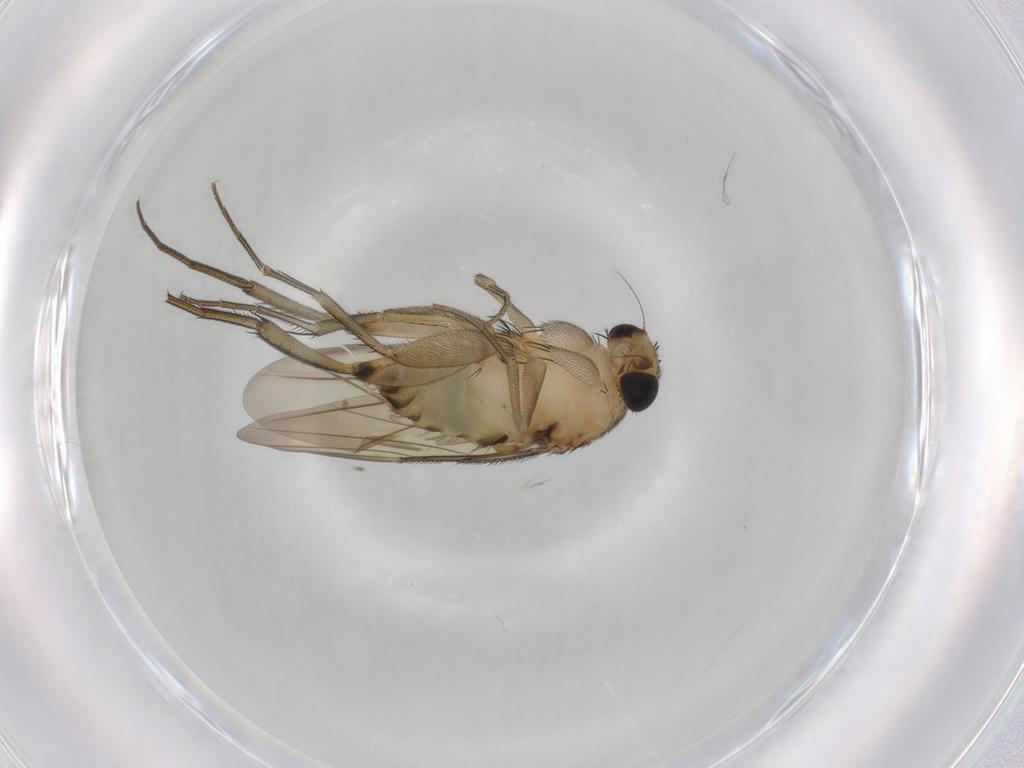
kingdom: Animalia
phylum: Arthropoda
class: Insecta
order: Diptera
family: Phoridae
